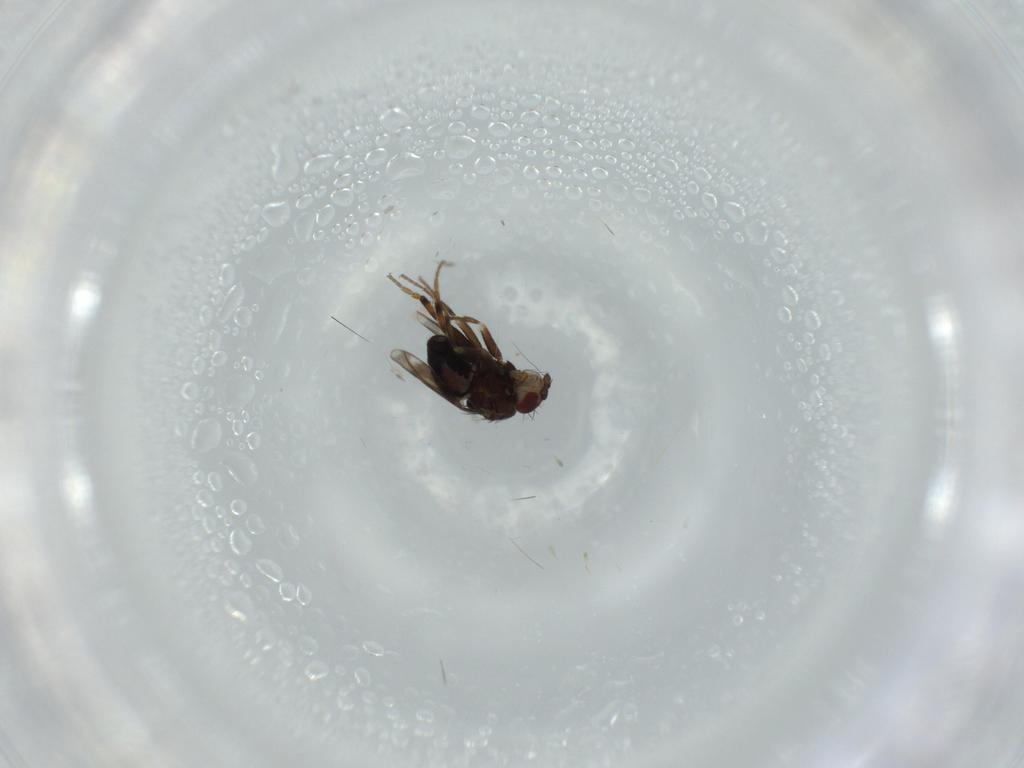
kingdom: Animalia
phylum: Arthropoda
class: Insecta
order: Diptera
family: Sphaeroceridae
